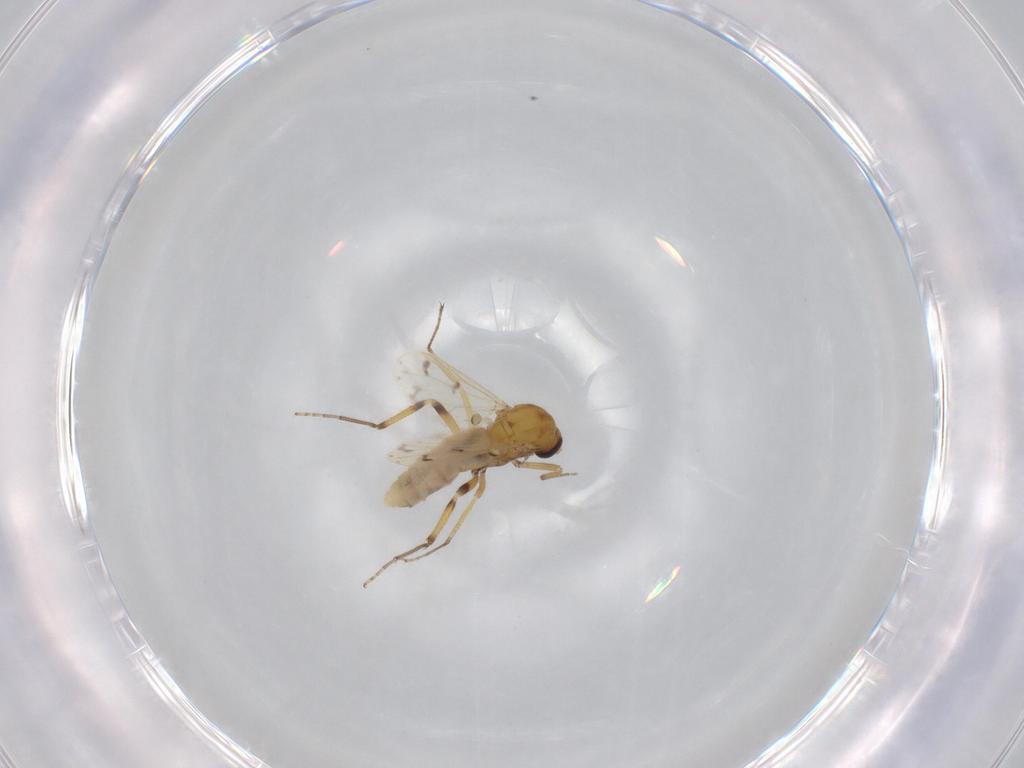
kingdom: Animalia
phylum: Arthropoda
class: Insecta
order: Diptera
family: Ceratopogonidae
